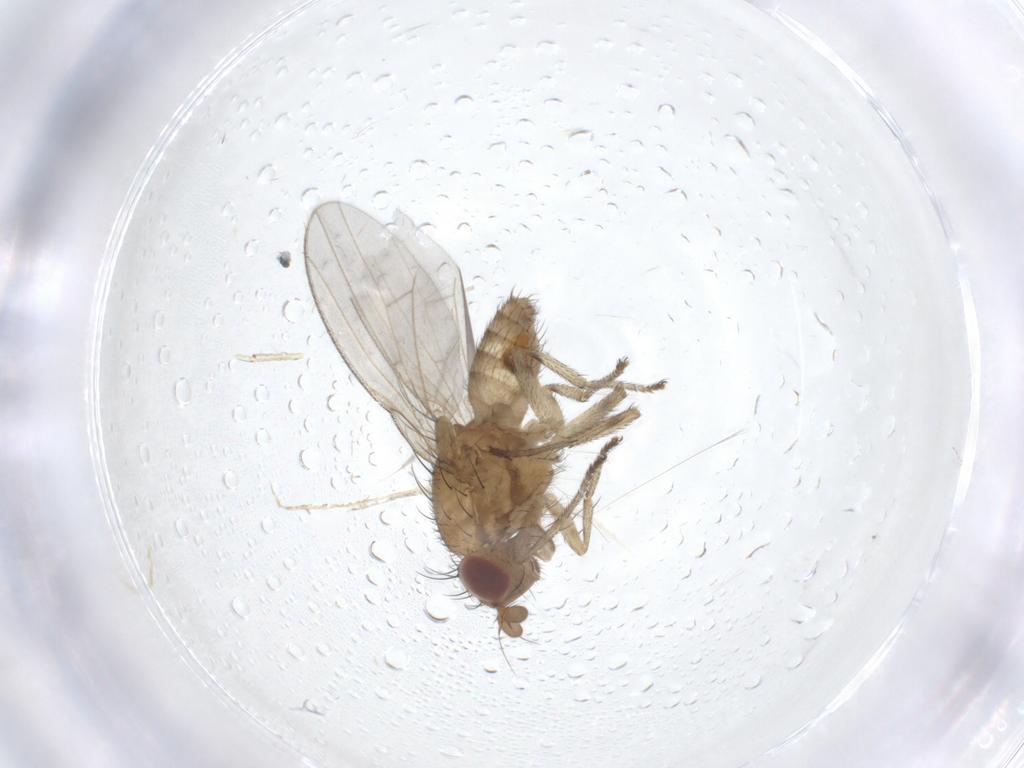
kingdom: Animalia
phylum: Arthropoda
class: Insecta
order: Diptera
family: Lauxaniidae
